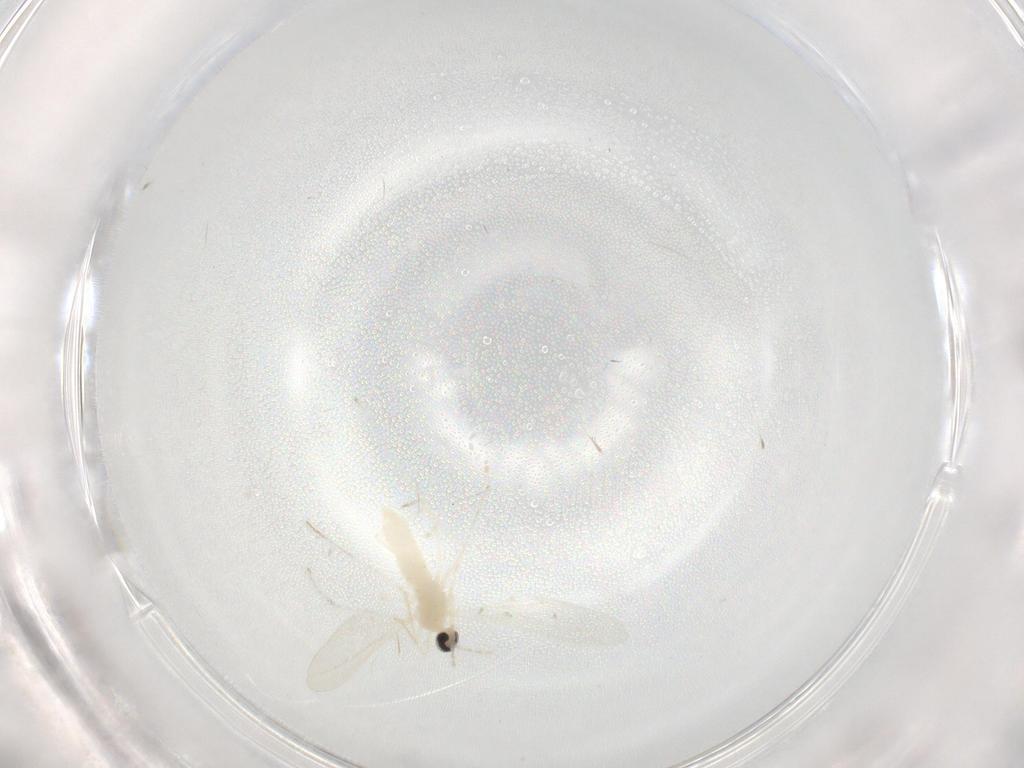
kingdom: Animalia
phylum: Arthropoda
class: Insecta
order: Diptera
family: Cecidomyiidae
